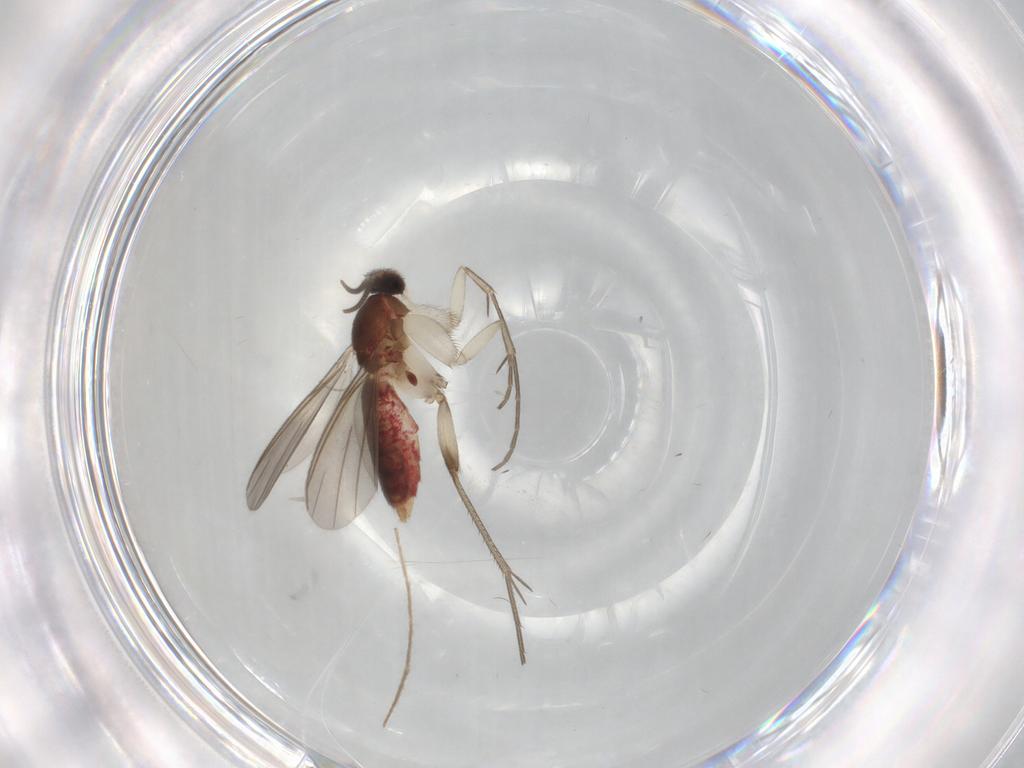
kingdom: Animalia
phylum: Arthropoda
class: Insecta
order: Diptera
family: Mycetophilidae
